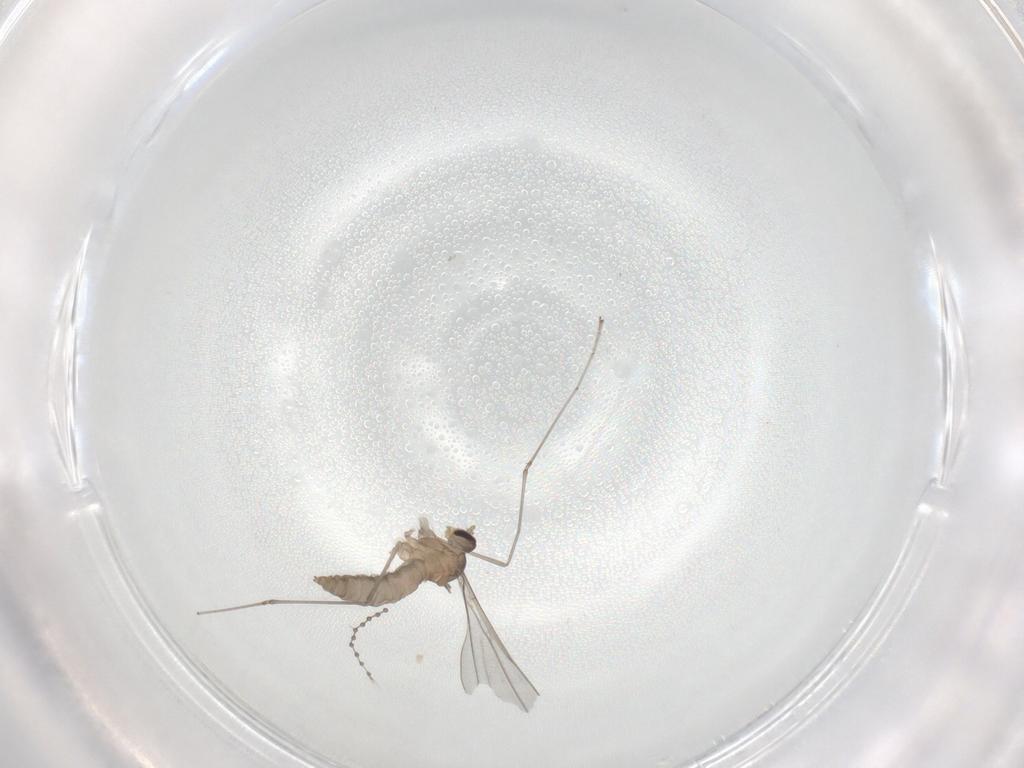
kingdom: Animalia
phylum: Arthropoda
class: Insecta
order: Diptera
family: Cecidomyiidae
